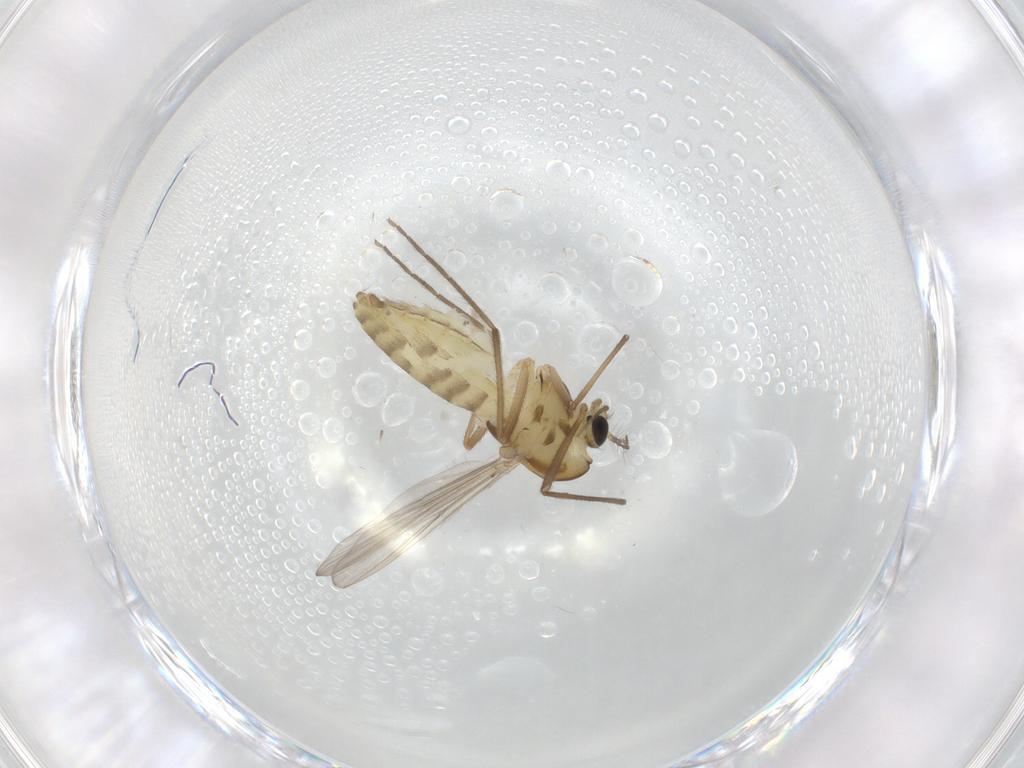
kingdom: Animalia
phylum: Arthropoda
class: Insecta
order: Diptera
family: Chironomidae
